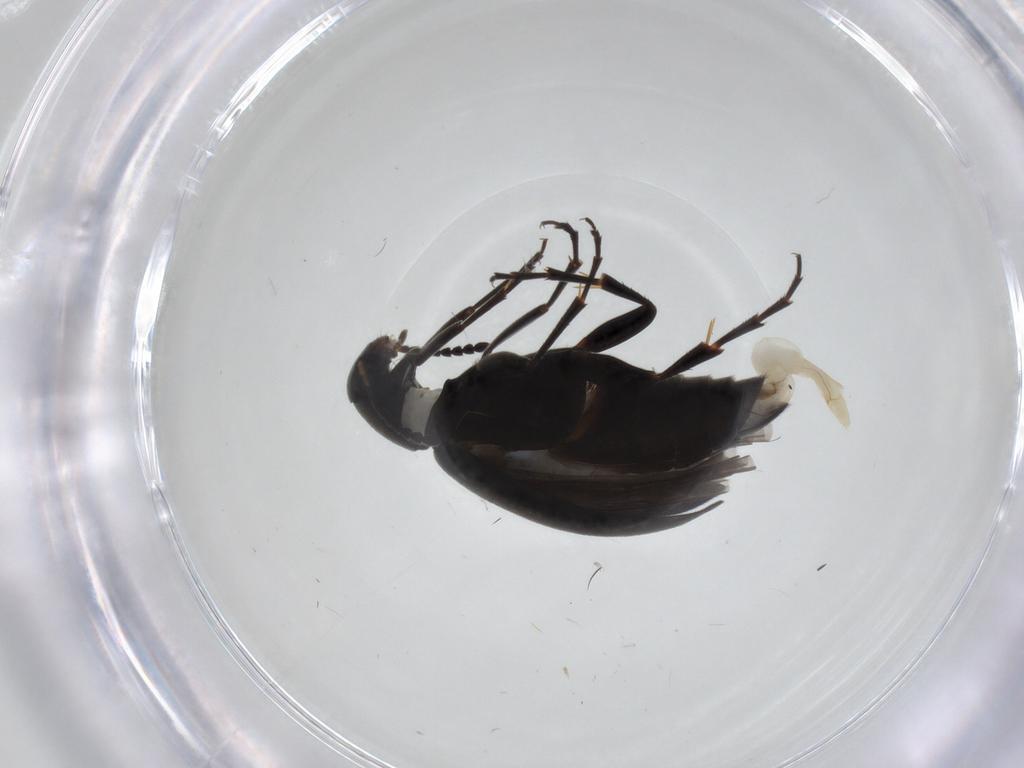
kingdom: Animalia
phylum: Arthropoda
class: Insecta
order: Coleoptera
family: Scraptiidae
